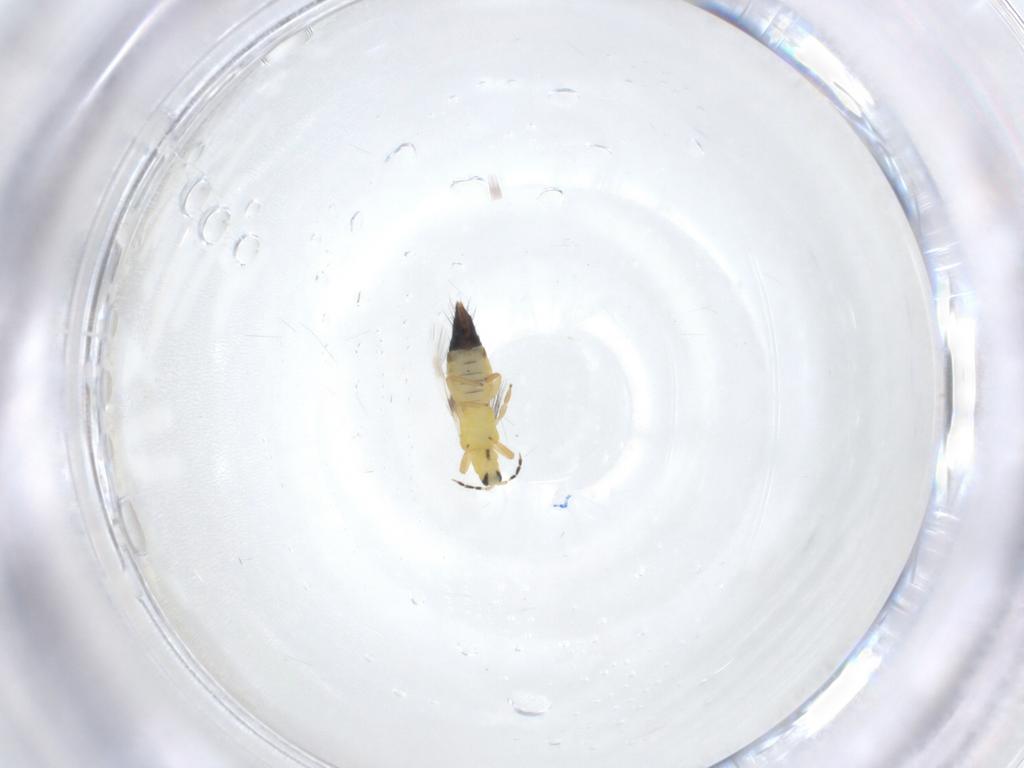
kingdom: Animalia
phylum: Arthropoda
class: Insecta
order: Thysanoptera
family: Aeolothripidae
